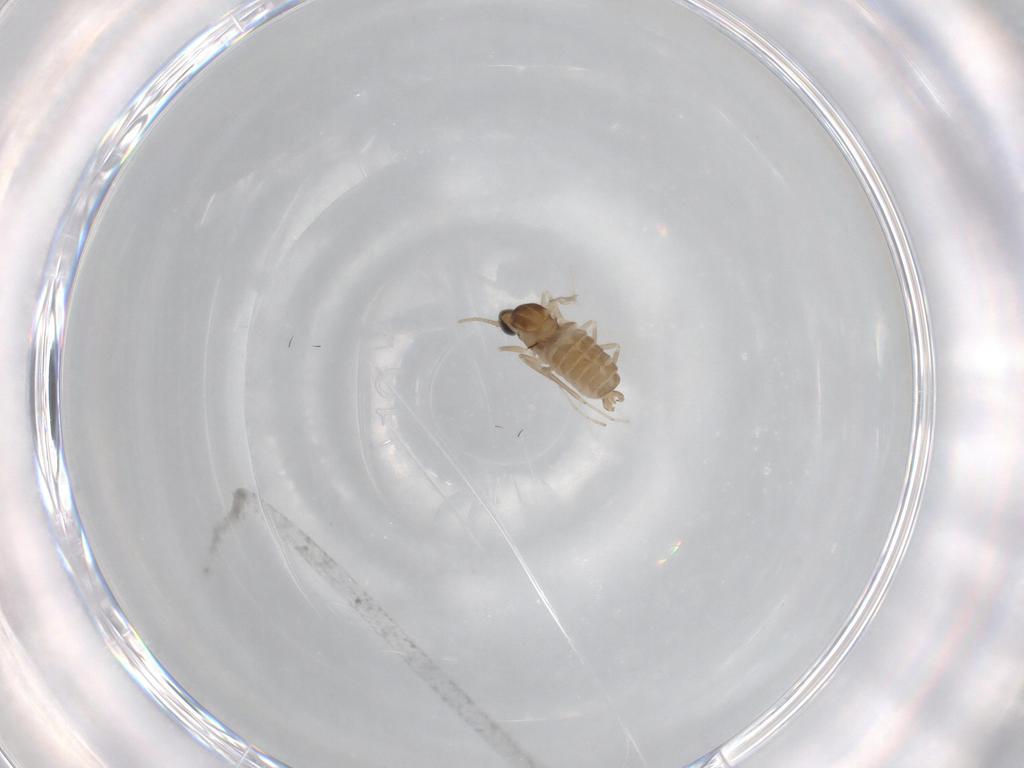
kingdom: Animalia
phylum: Arthropoda
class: Insecta
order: Diptera
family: Cecidomyiidae
